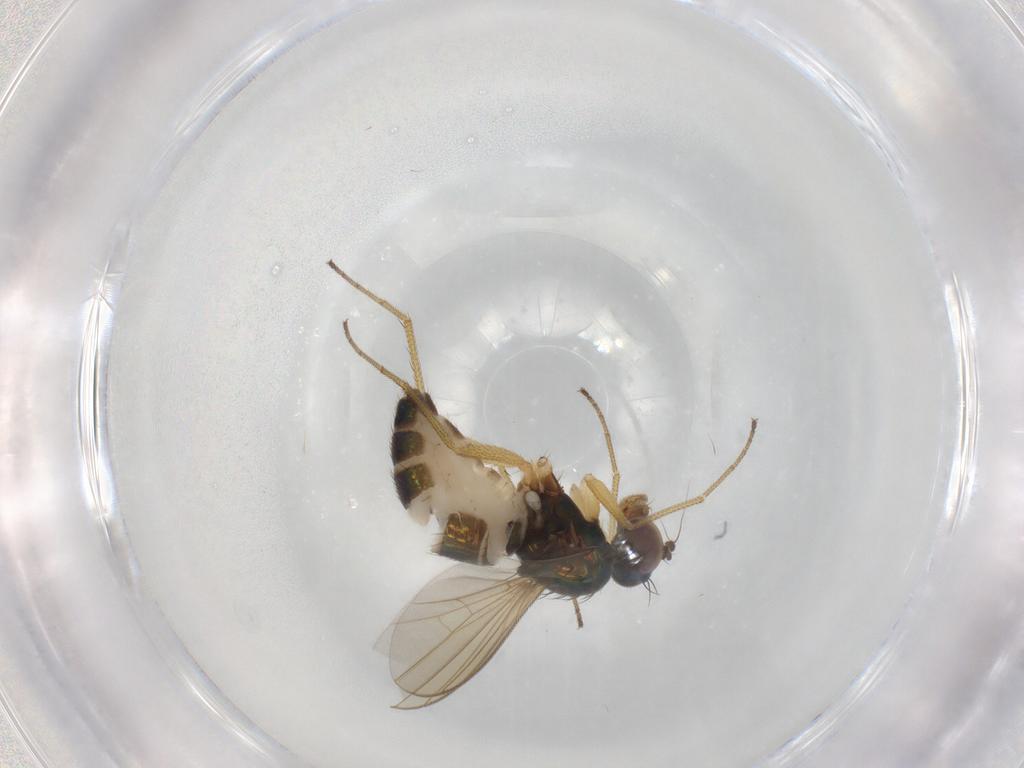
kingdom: Animalia
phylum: Arthropoda
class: Insecta
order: Diptera
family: Dolichopodidae
